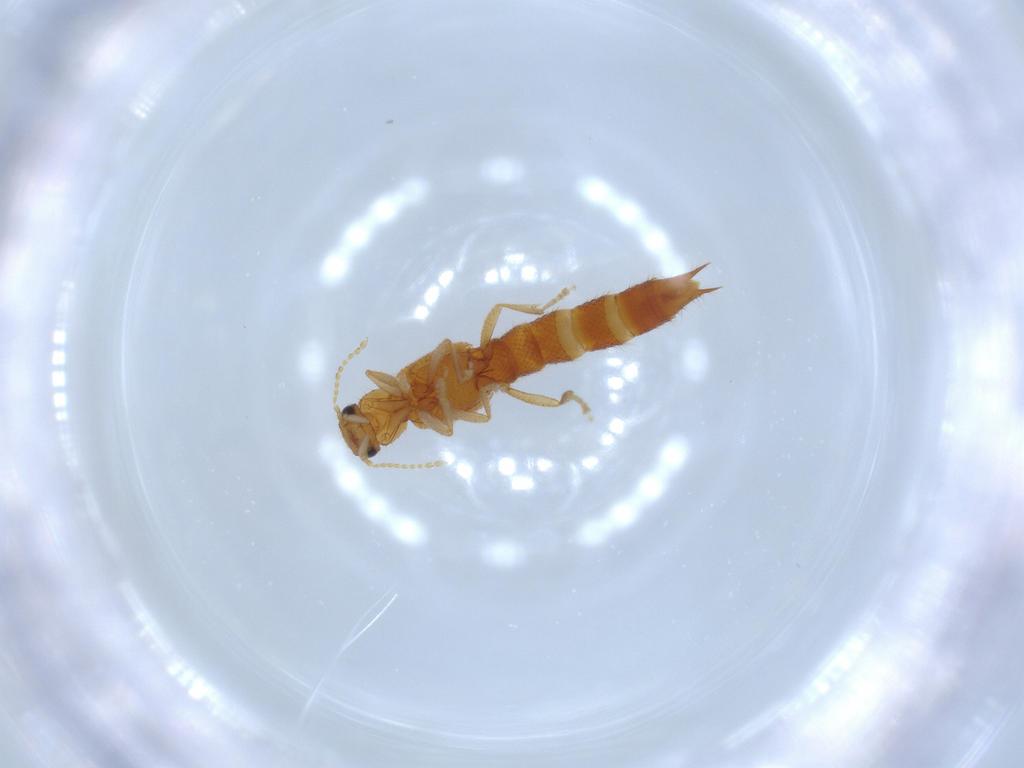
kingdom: Animalia
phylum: Arthropoda
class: Insecta
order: Coleoptera
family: Staphylinidae
